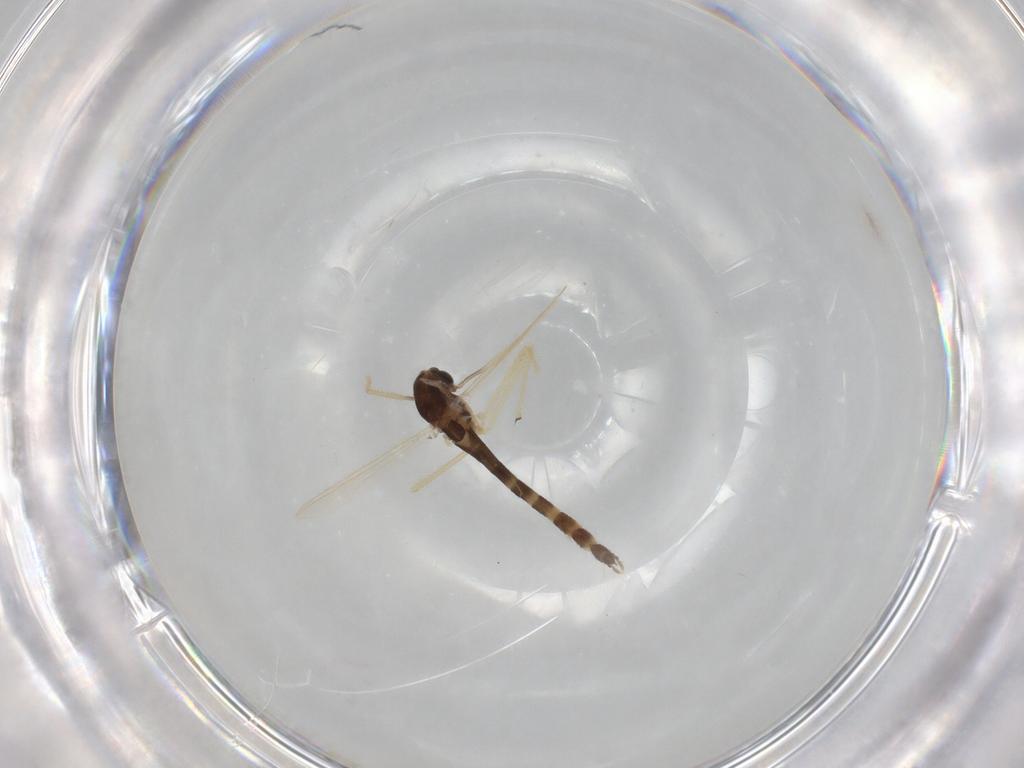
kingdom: Animalia
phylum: Arthropoda
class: Insecta
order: Diptera
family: Chironomidae
